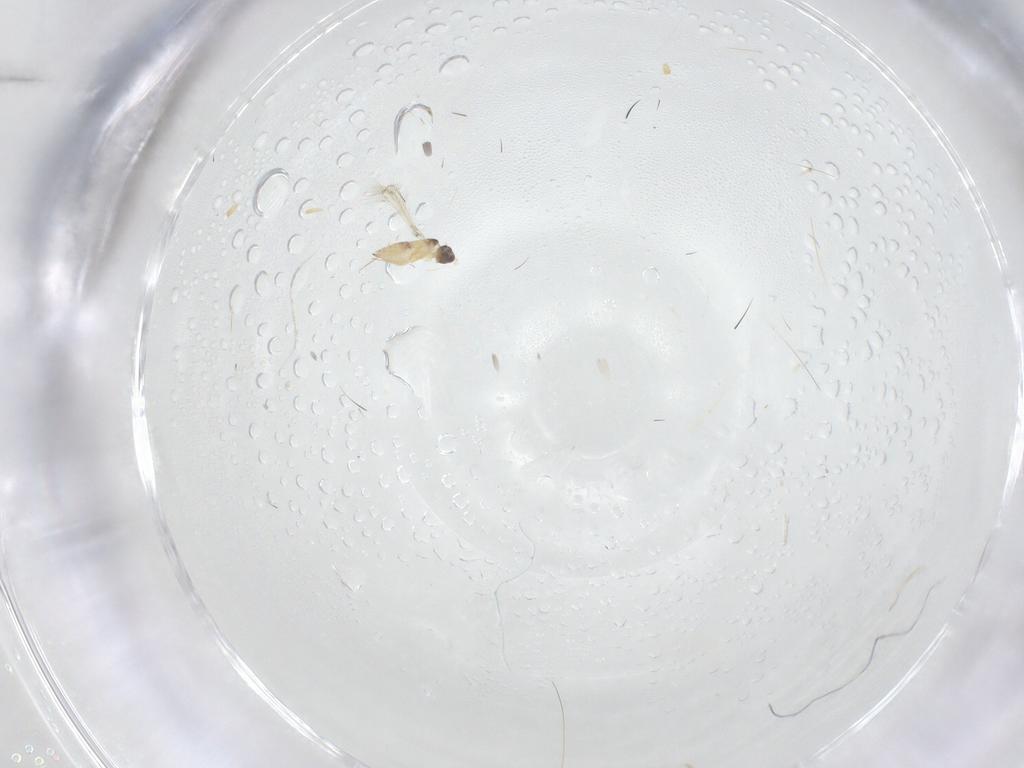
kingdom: Animalia
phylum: Arthropoda
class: Insecta
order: Hymenoptera
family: Mymaridae
